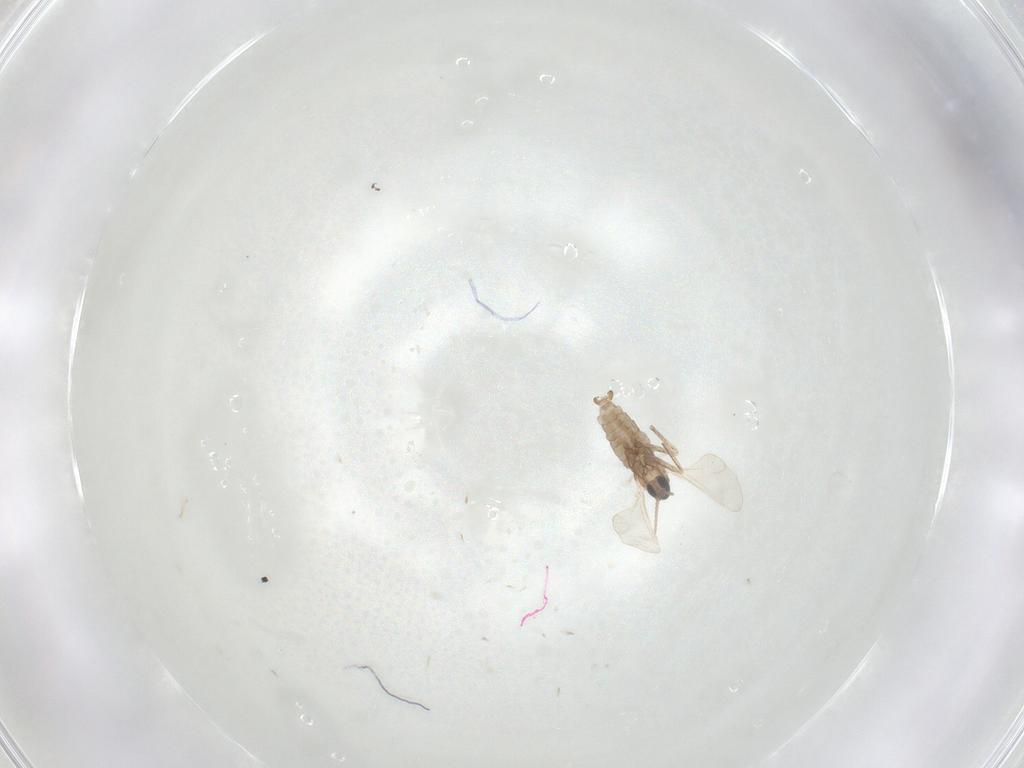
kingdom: Animalia
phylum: Arthropoda
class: Insecta
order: Diptera
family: Cecidomyiidae
